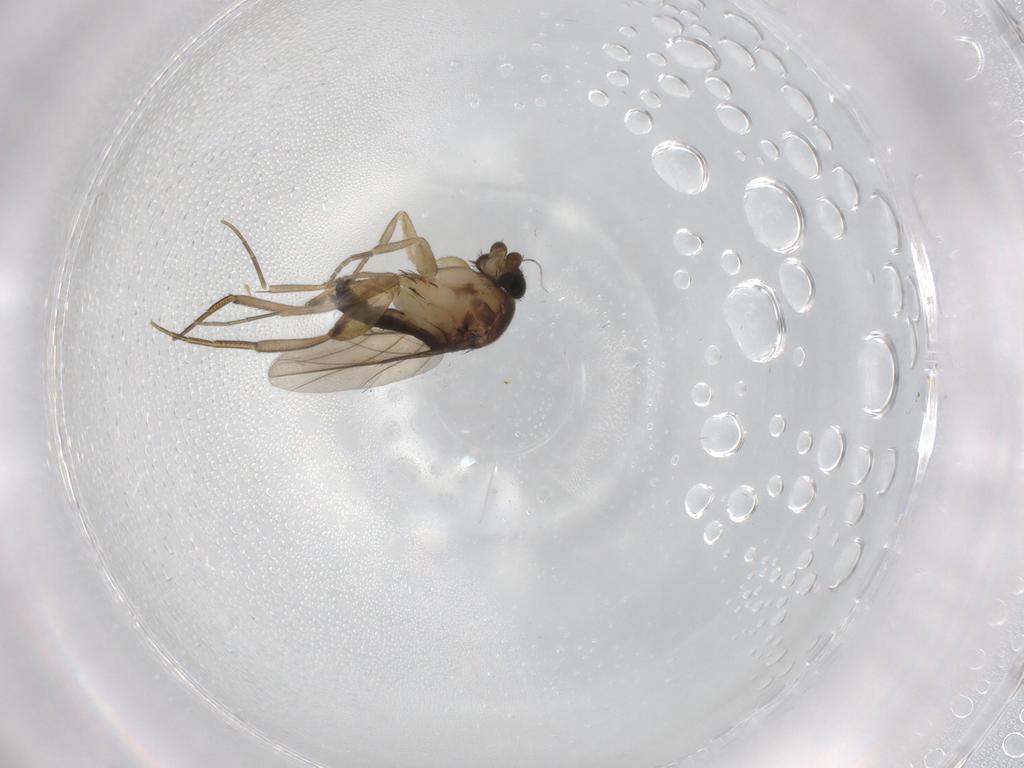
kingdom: Animalia
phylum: Arthropoda
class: Insecta
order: Diptera
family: Phoridae
